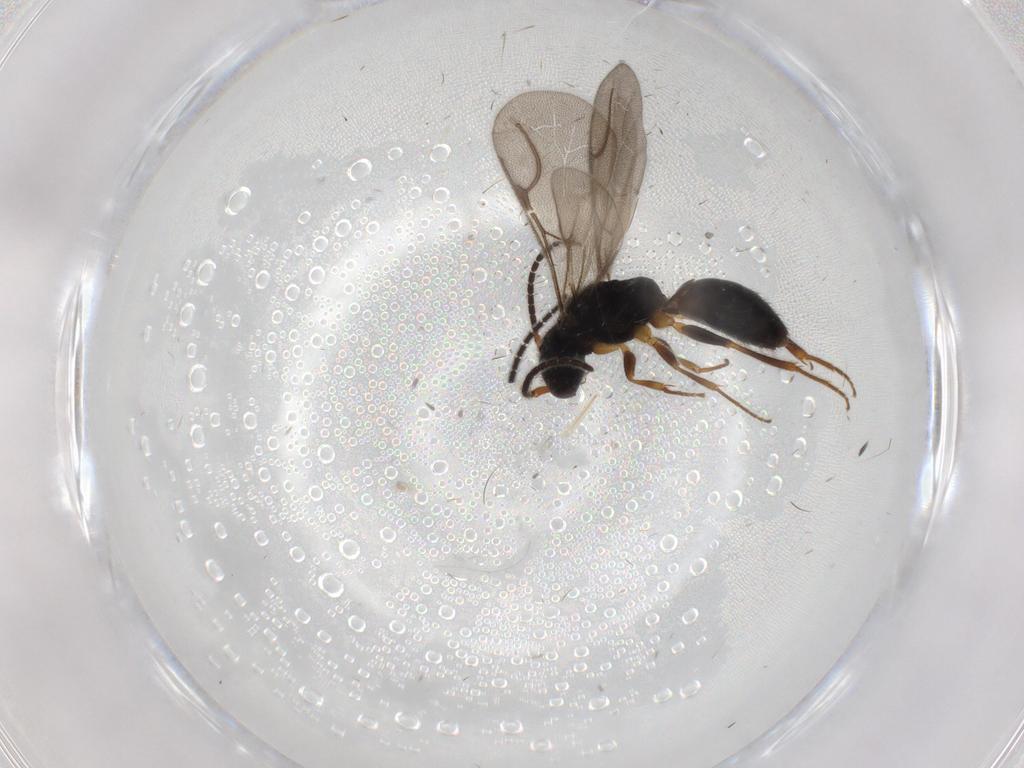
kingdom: Animalia
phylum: Arthropoda
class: Insecta
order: Hymenoptera
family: Bethylidae
